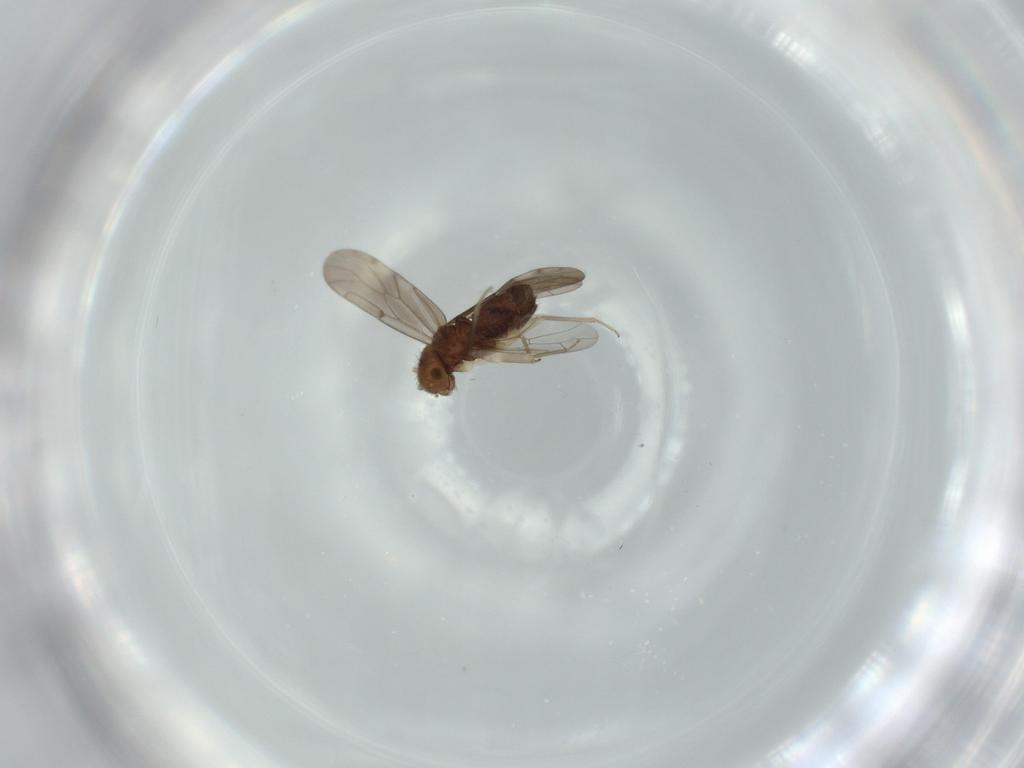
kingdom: Animalia
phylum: Arthropoda
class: Insecta
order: Psocodea
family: Ectopsocidae
